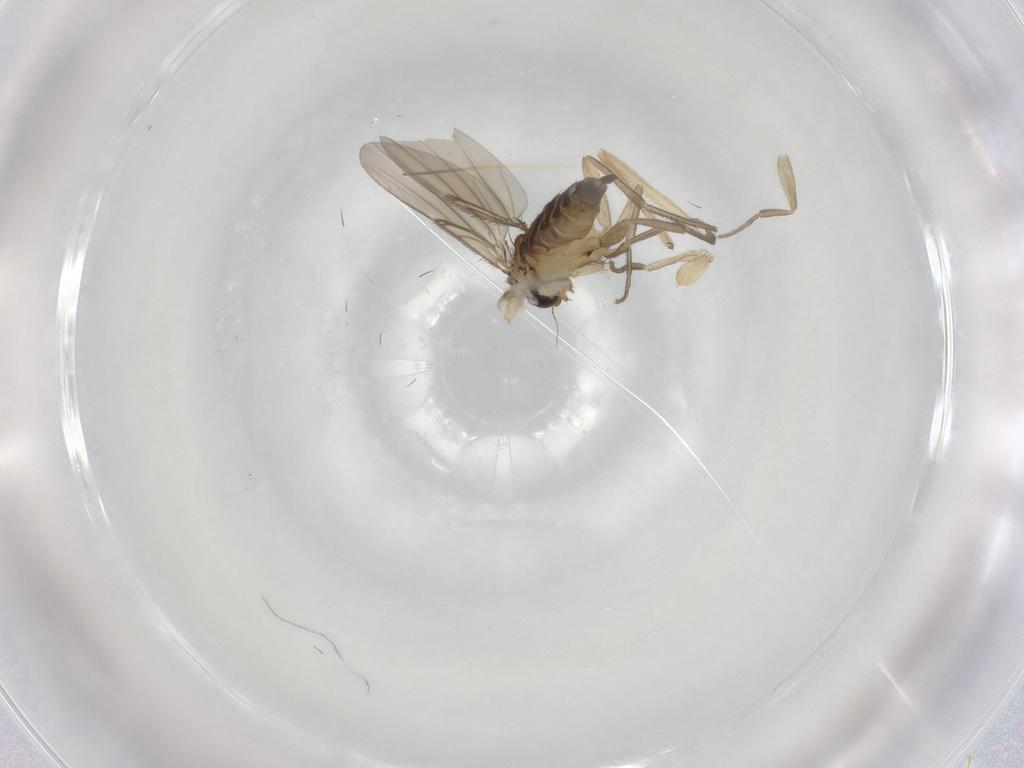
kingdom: Animalia
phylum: Arthropoda
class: Insecta
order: Diptera
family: Phoridae
